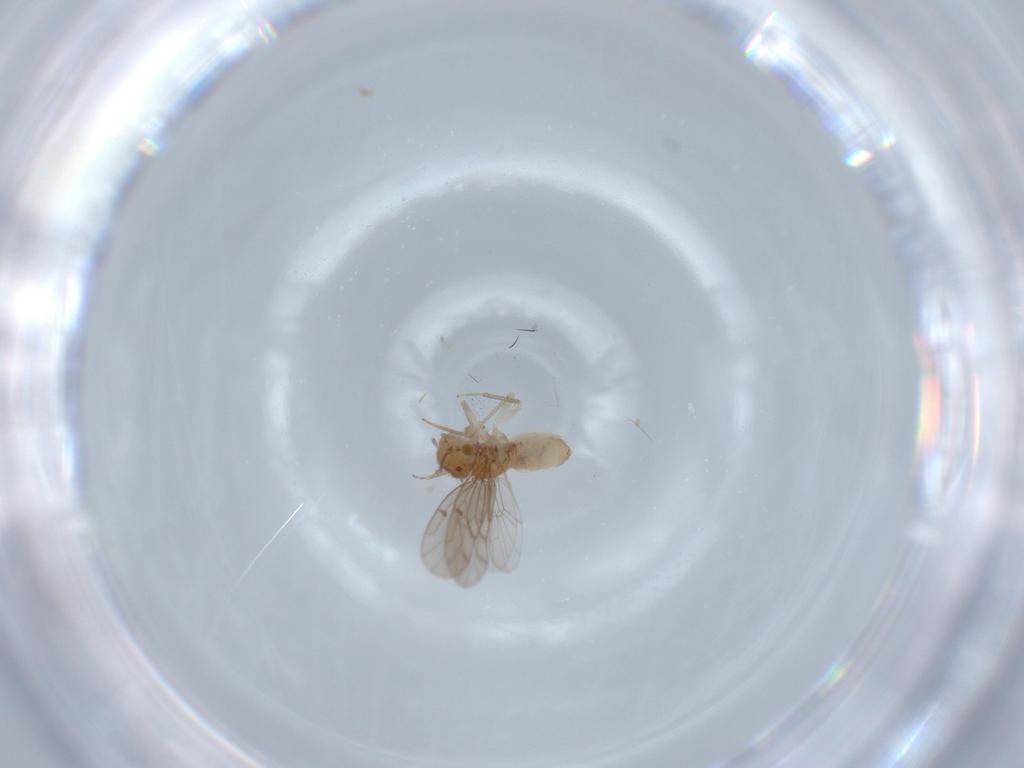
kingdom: Animalia
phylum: Arthropoda
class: Insecta
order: Psocodea
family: Ectopsocidae
